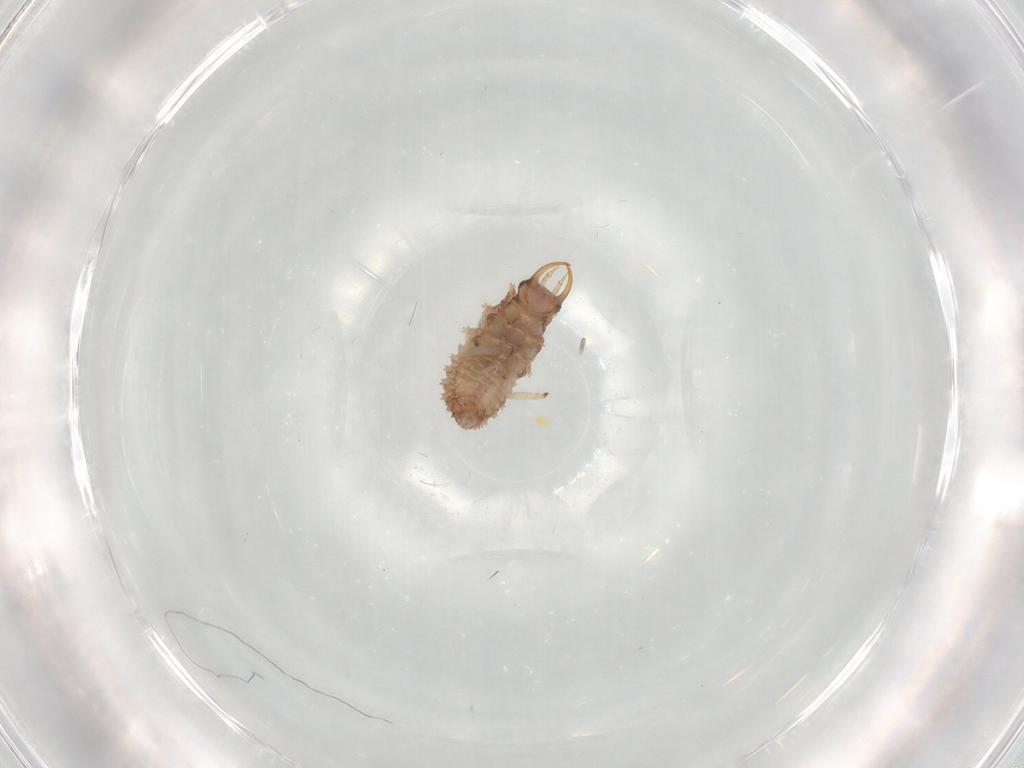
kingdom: Animalia
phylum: Arthropoda
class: Insecta
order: Neuroptera
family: Chrysopidae
